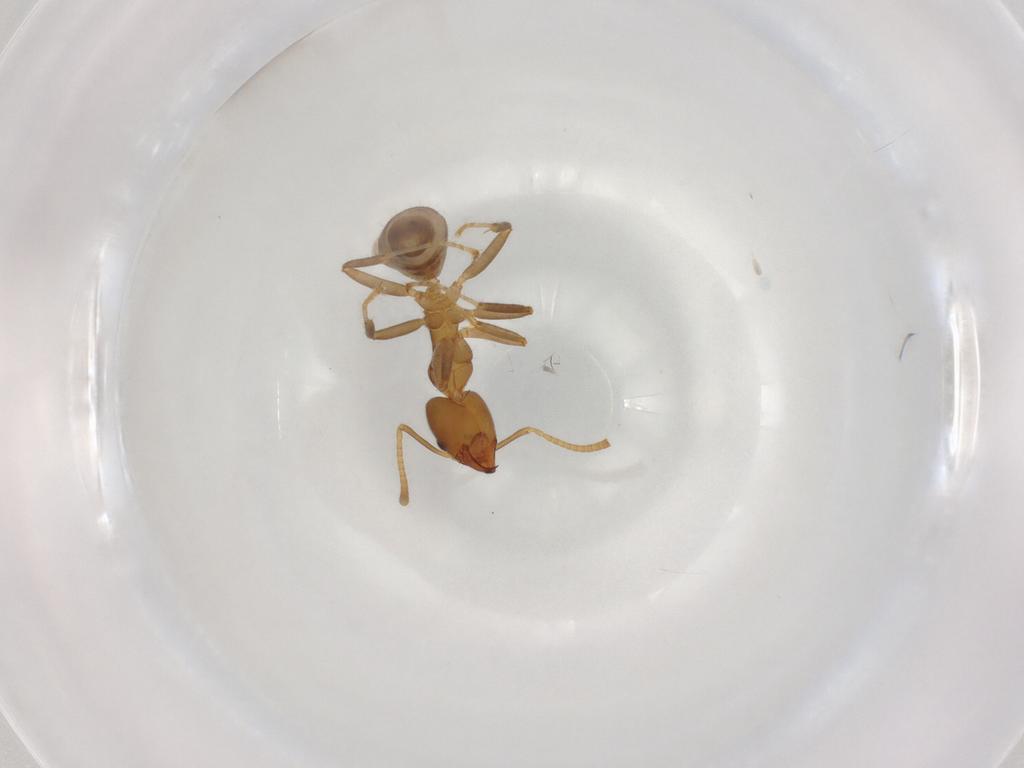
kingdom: Animalia
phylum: Arthropoda
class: Insecta
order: Hymenoptera
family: Formicidae
